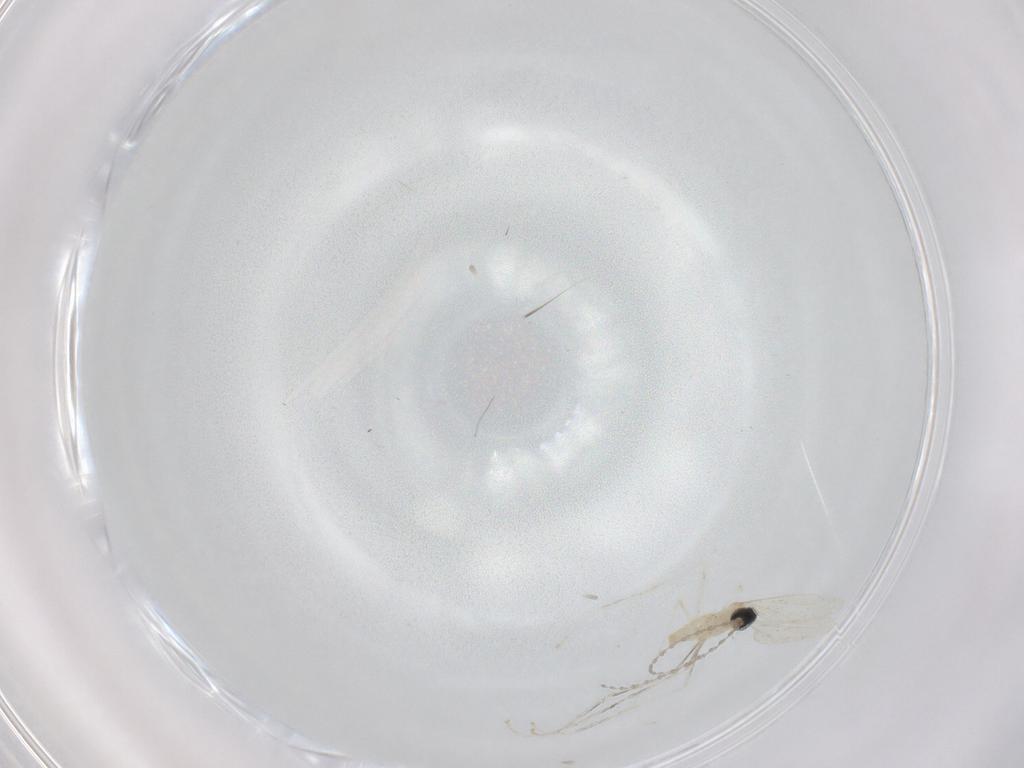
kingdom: Animalia
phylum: Arthropoda
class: Insecta
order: Diptera
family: Cecidomyiidae
